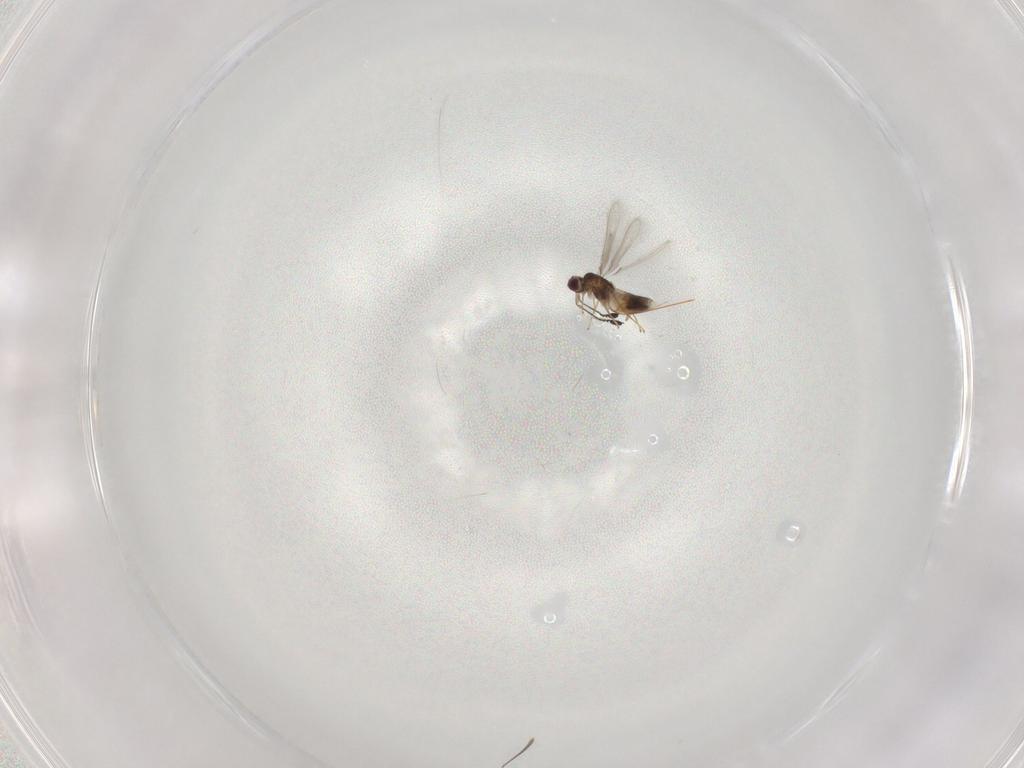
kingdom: Animalia
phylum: Arthropoda
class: Insecta
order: Hymenoptera
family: Mymaridae
